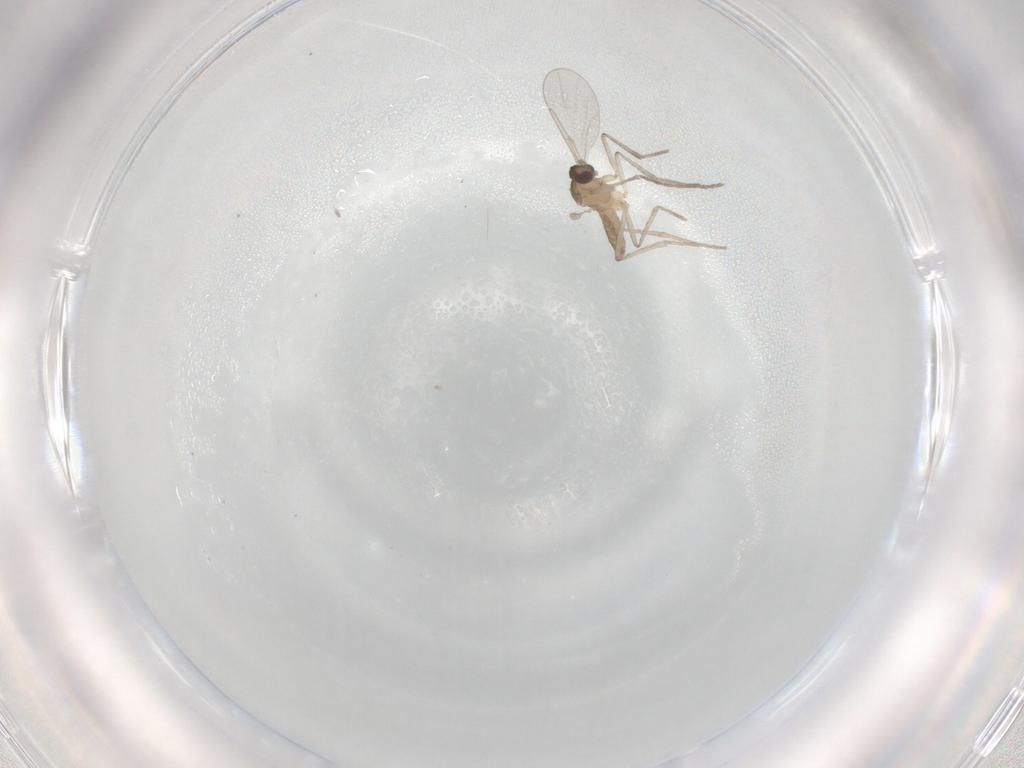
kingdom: Animalia
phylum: Arthropoda
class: Insecta
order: Diptera
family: Cecidomyiidae
